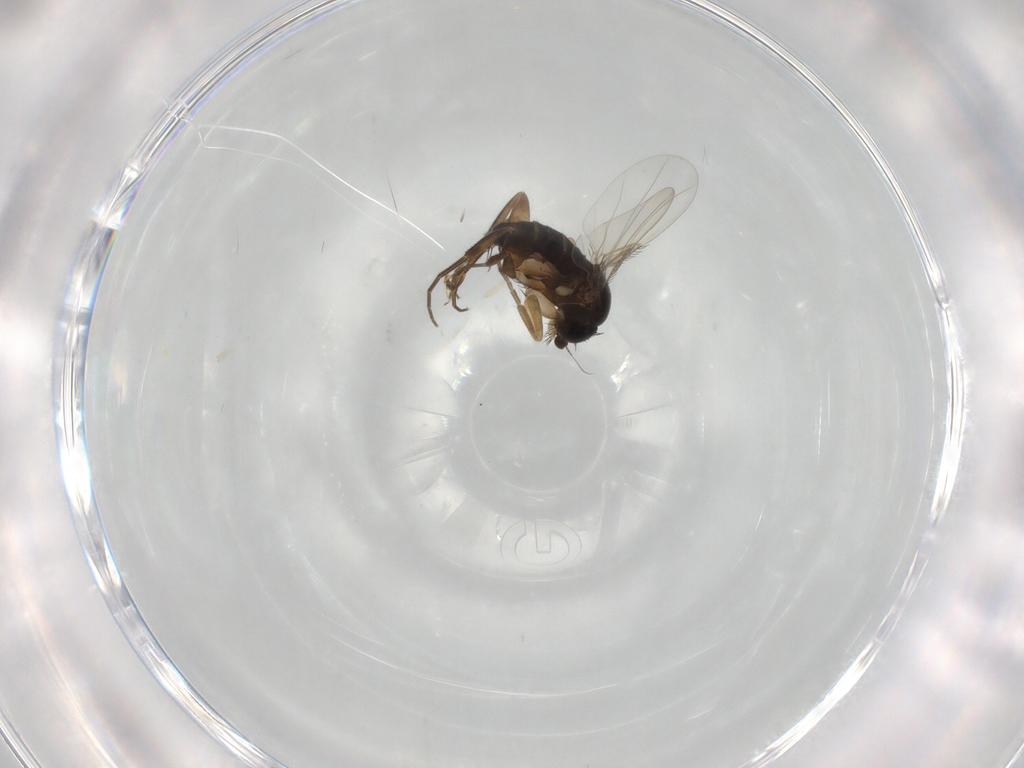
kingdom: Animalia
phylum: Arthropoda
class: Insecta
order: Diptera
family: Phoridae
